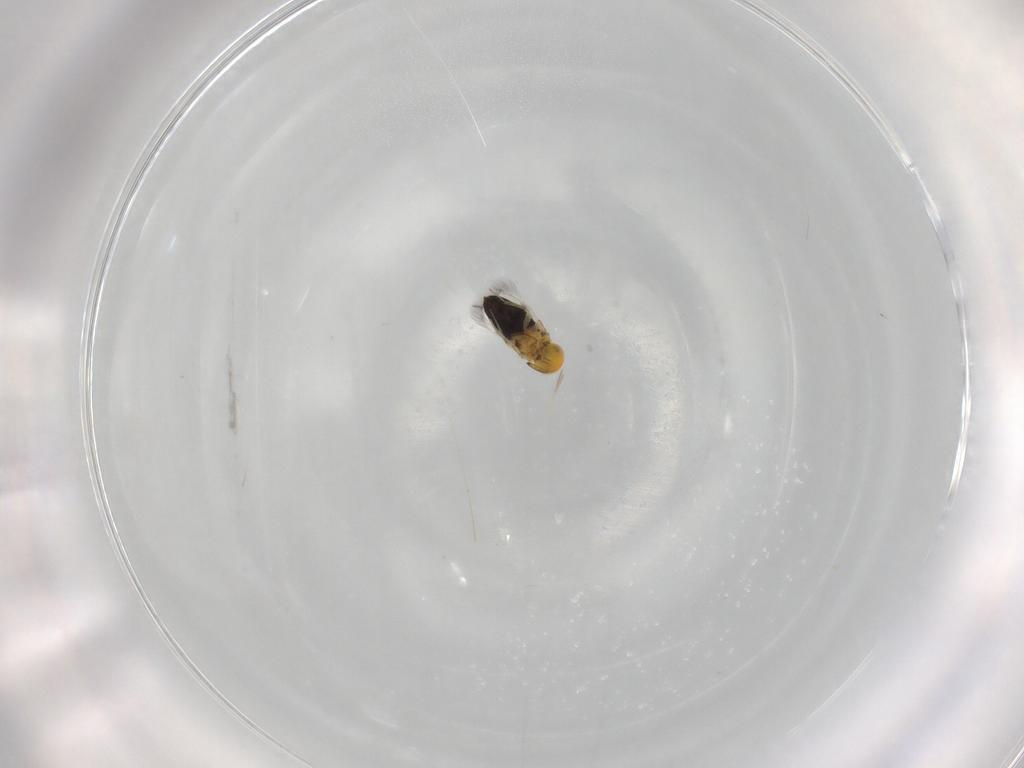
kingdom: Animalia
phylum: Arthropoda
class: Insecta
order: Hymenoptera
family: Signiphoridae
